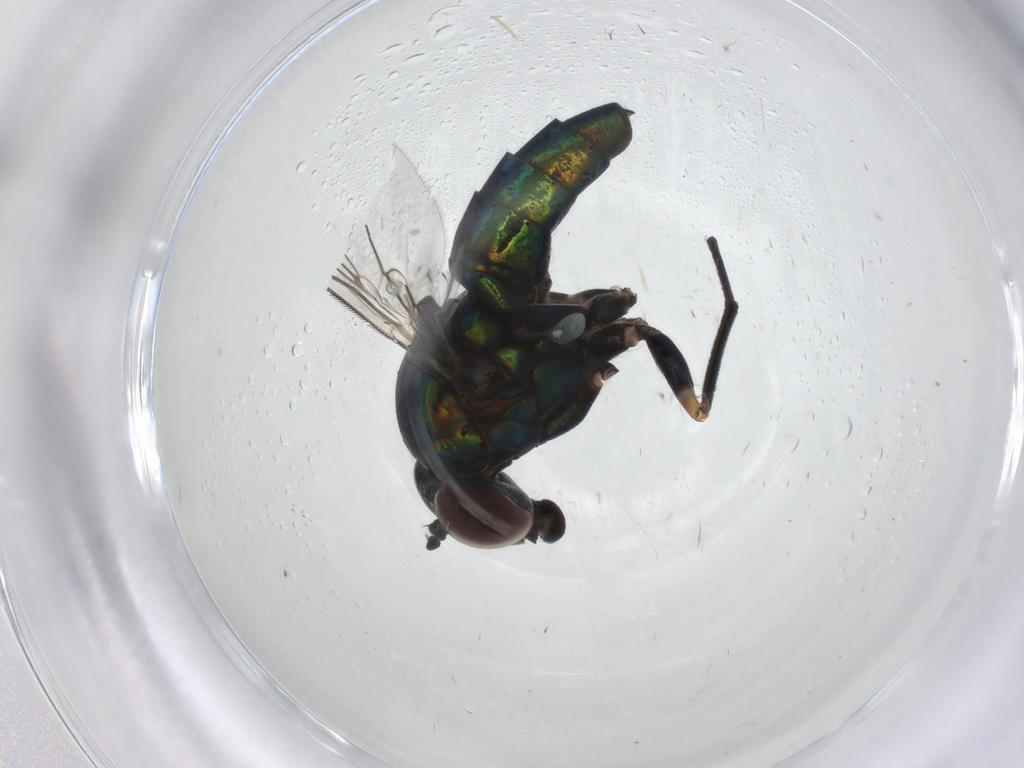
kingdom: Animalia
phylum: Arthropoda
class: Insecta
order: Diptera
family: Dolichopodidae
